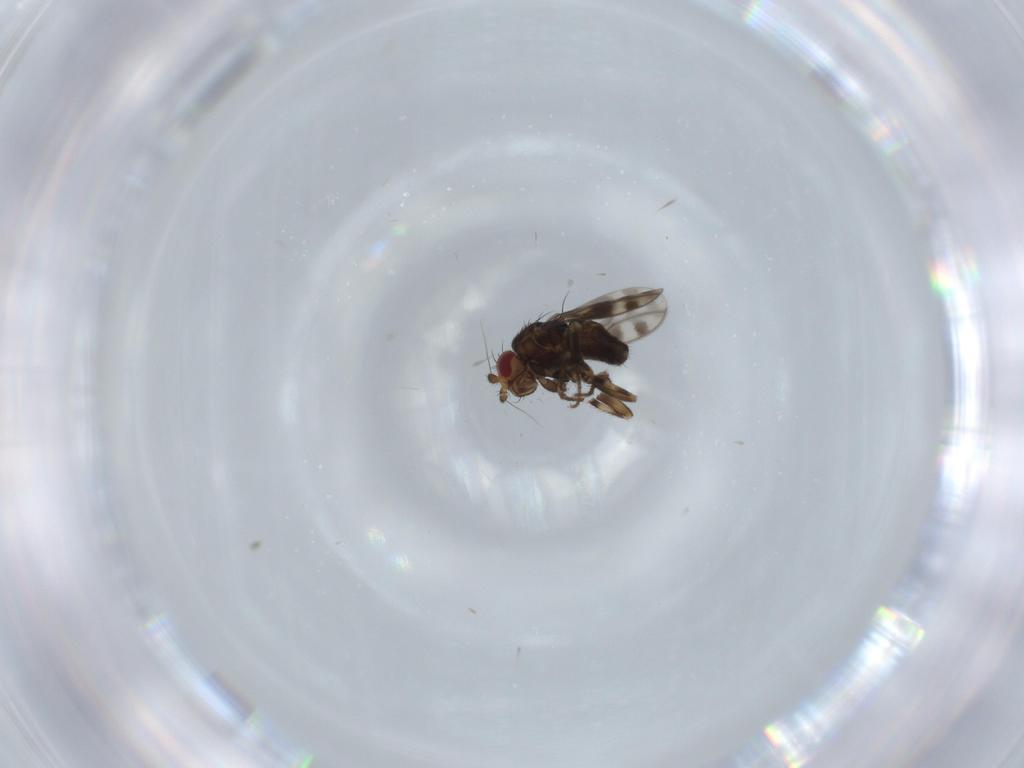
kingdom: Animalia
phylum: Arthropoda
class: Insecta
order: Diptera
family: Sphaeroceridae
